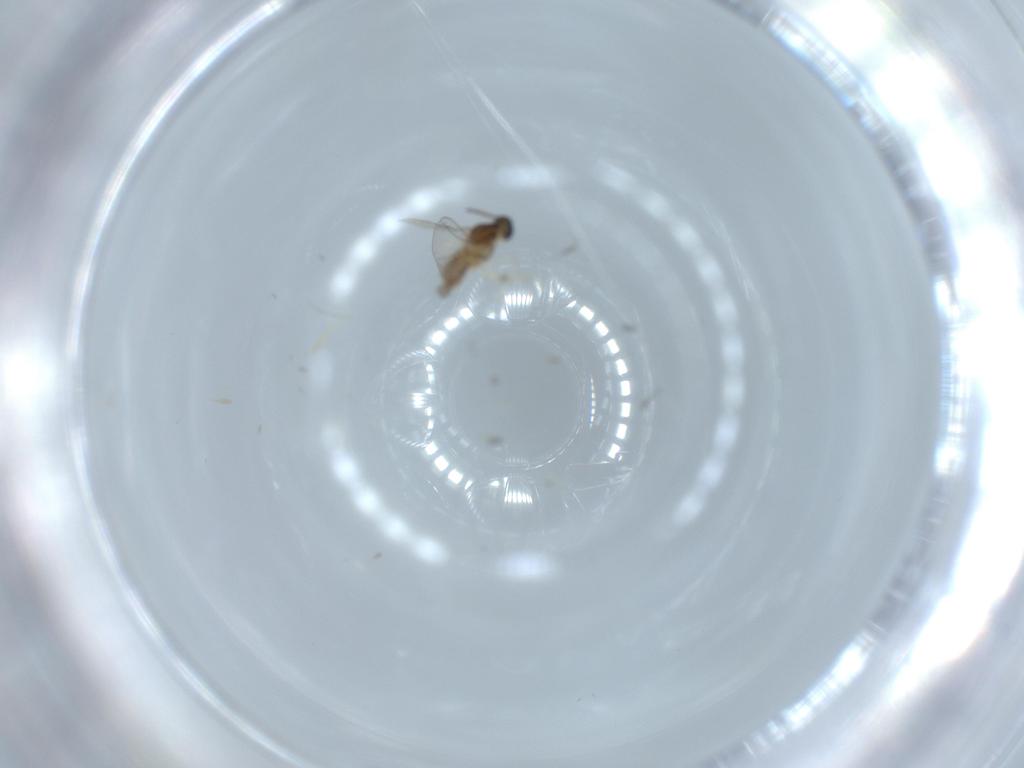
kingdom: Animalia
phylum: Arthropoda
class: Insecta
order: Diptera
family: Cecidomyiidae
